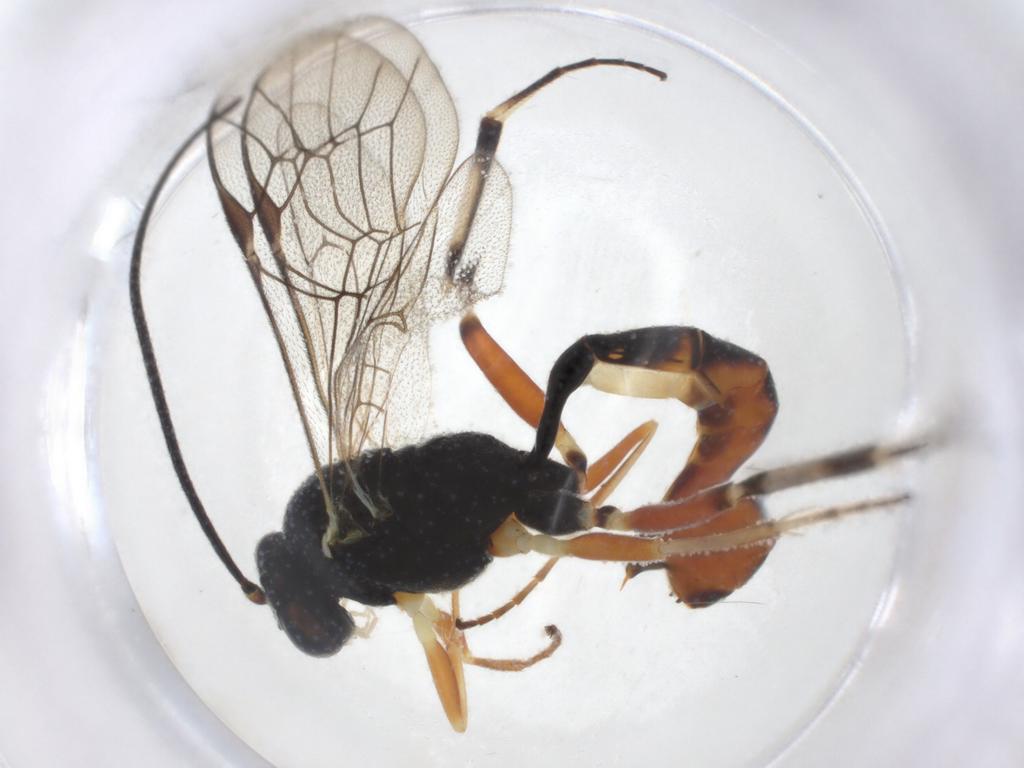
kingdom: Animalia
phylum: Arthropoda
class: Insecta
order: Hymenoptera
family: Ichneumonidae
